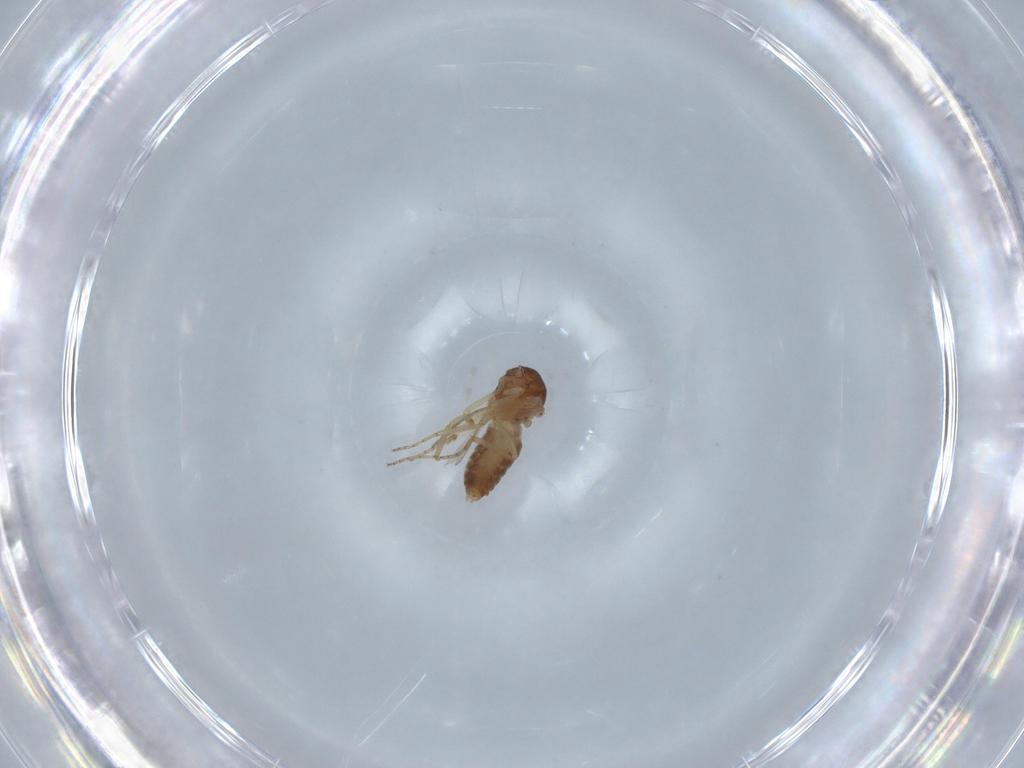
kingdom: Animalia
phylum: Arthropoda
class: Insecta
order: Diptera
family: Ceratopogonidae
